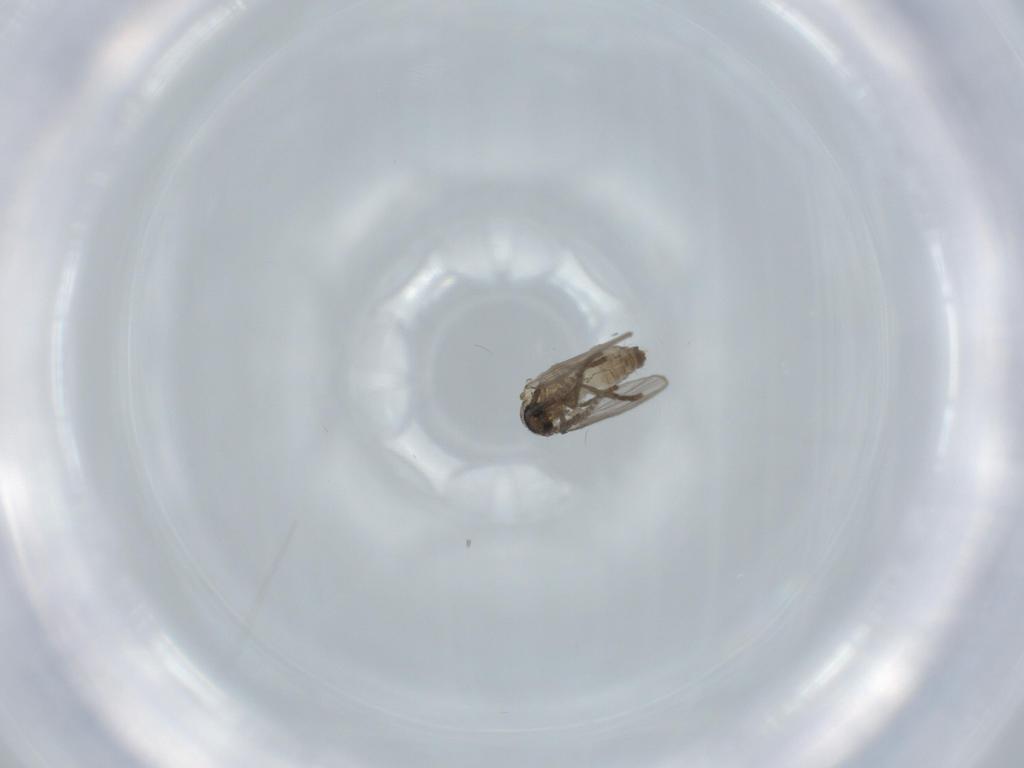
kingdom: Animalia
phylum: Arthropoda
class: Insecta
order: Diptera
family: Psychodidae
